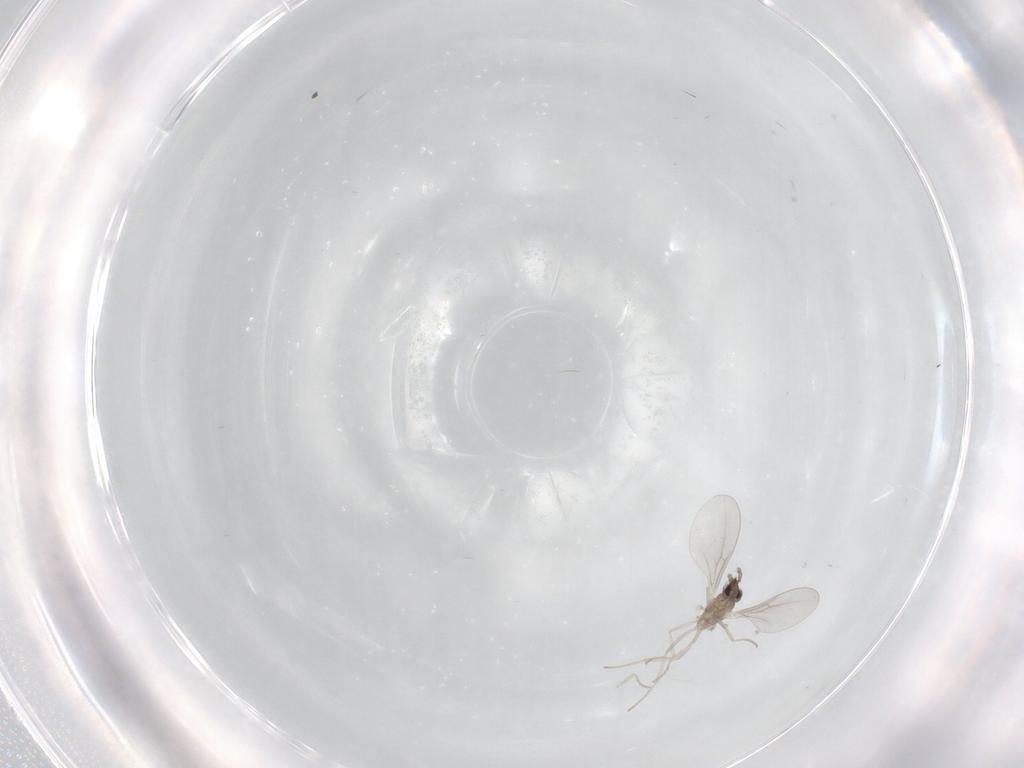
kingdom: Animalia
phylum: Arthropoda
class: Insecta
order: Diptera
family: Cecidomyiidae
